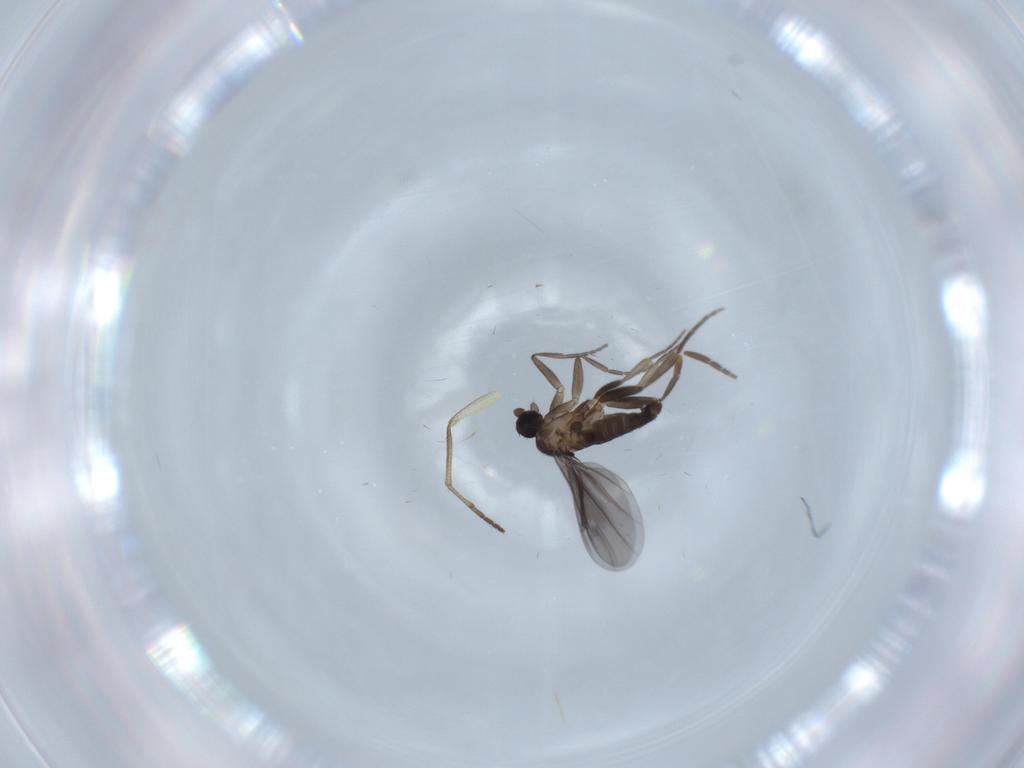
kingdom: Animalia
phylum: Arthropoda
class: Insecta
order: Diptera
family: Phoridae
